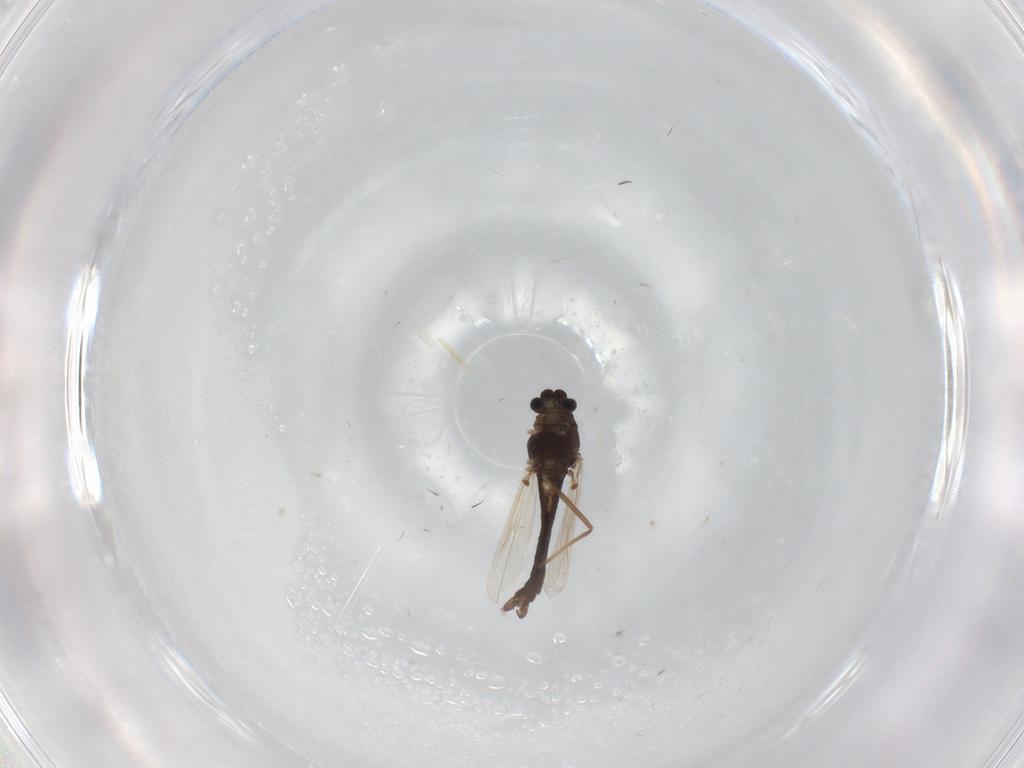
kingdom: Animalia
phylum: Arthropoda
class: Insecta
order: Diptera
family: Chironomidae
